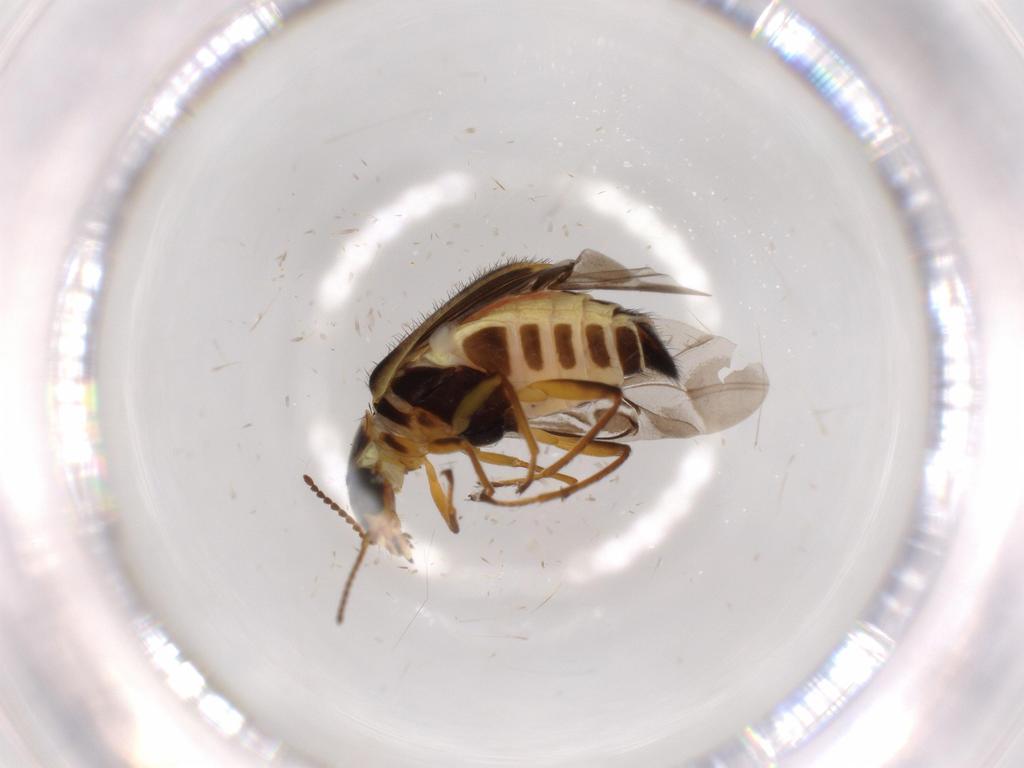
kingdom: Animalia
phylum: Arthropoda
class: Insecta
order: Coleoptera
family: Melyridae
